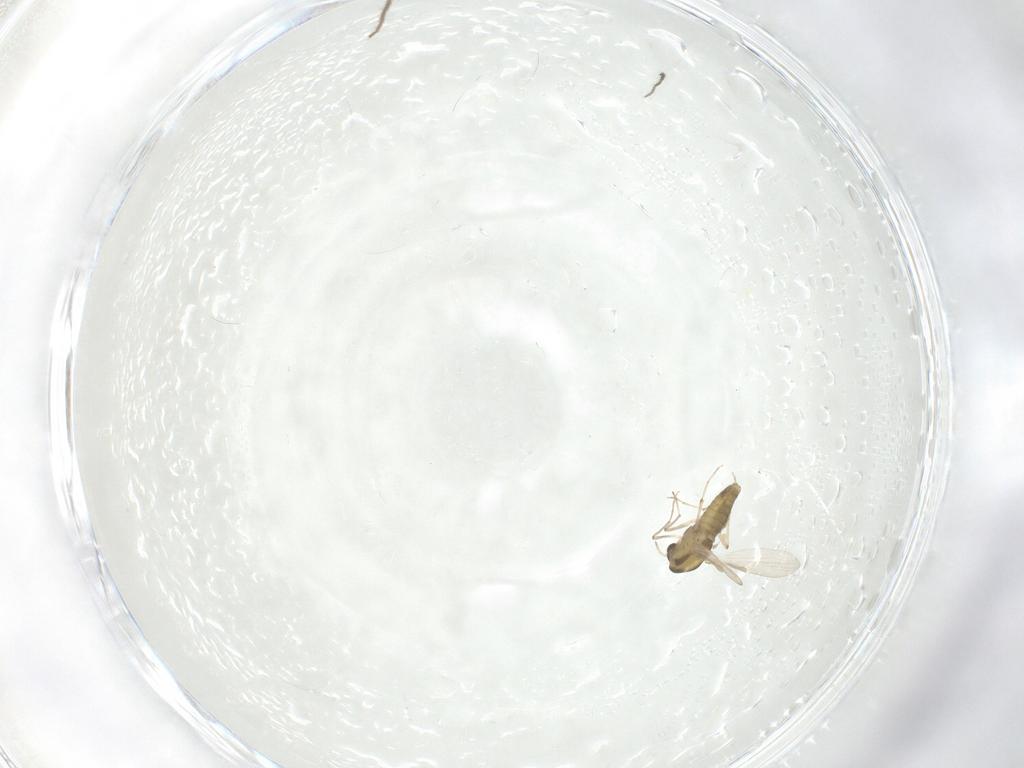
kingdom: Animalia
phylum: Arthropoda
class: Insecta
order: Diptera
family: Chironomidae
